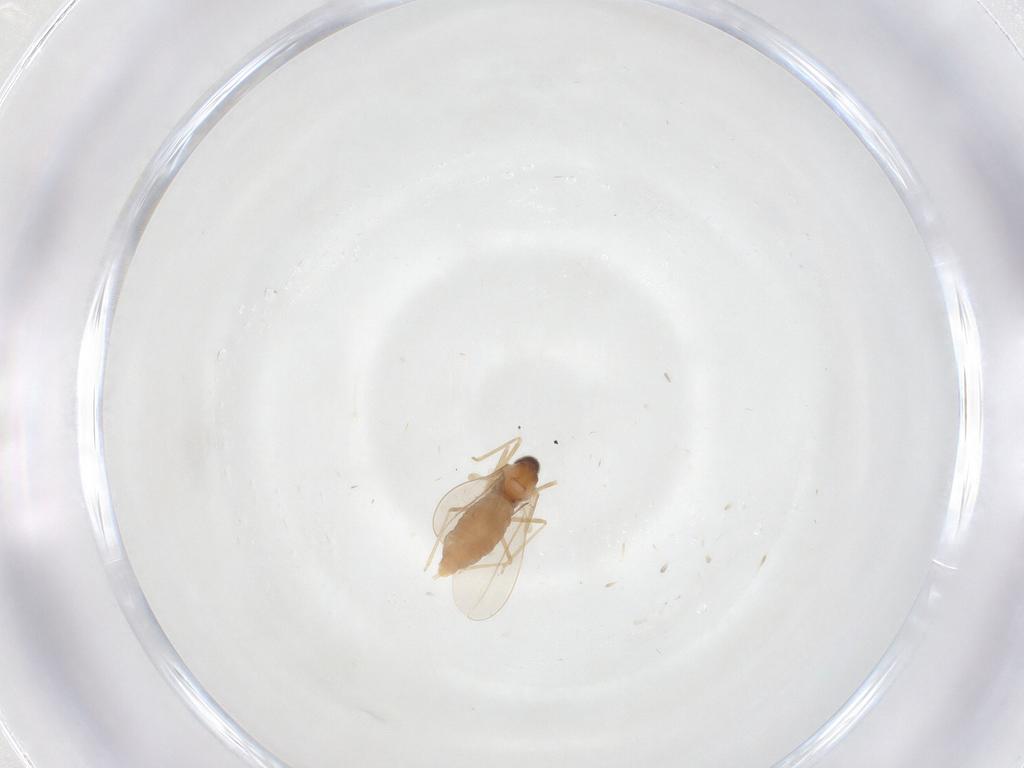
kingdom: Animalia
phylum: Arthropoda
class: Insecta
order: Diptera
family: Cecidomyiidae
